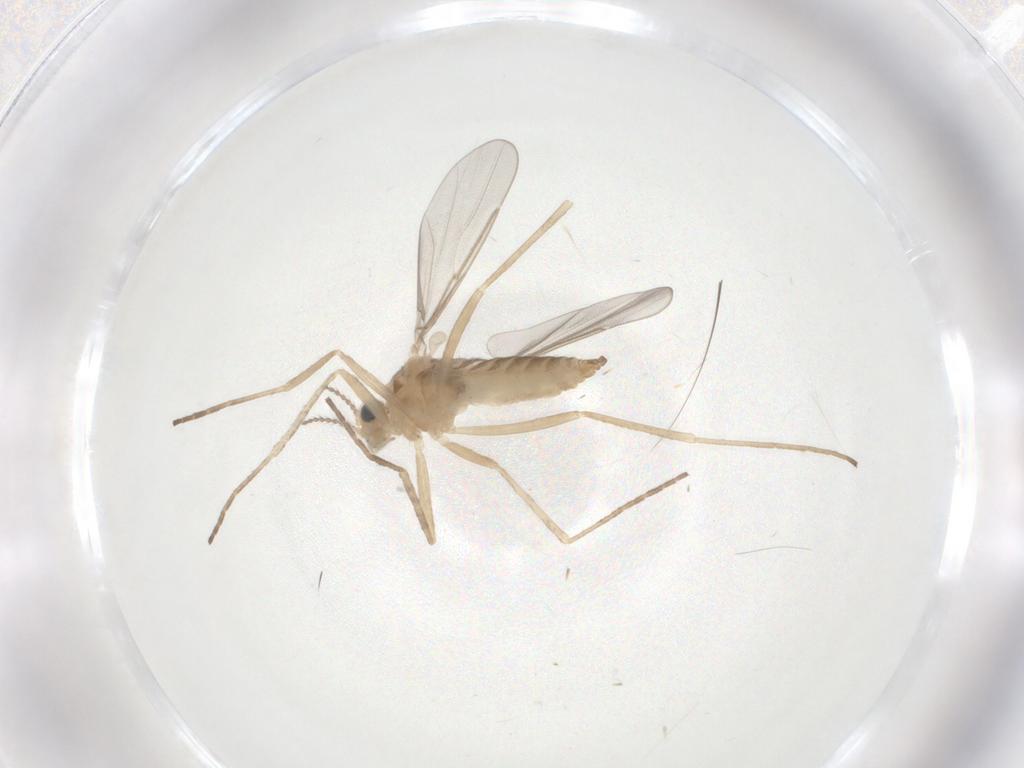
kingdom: Animalia
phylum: Arthropoda
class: Insecta
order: Diptera
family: Cecidomyiidae
